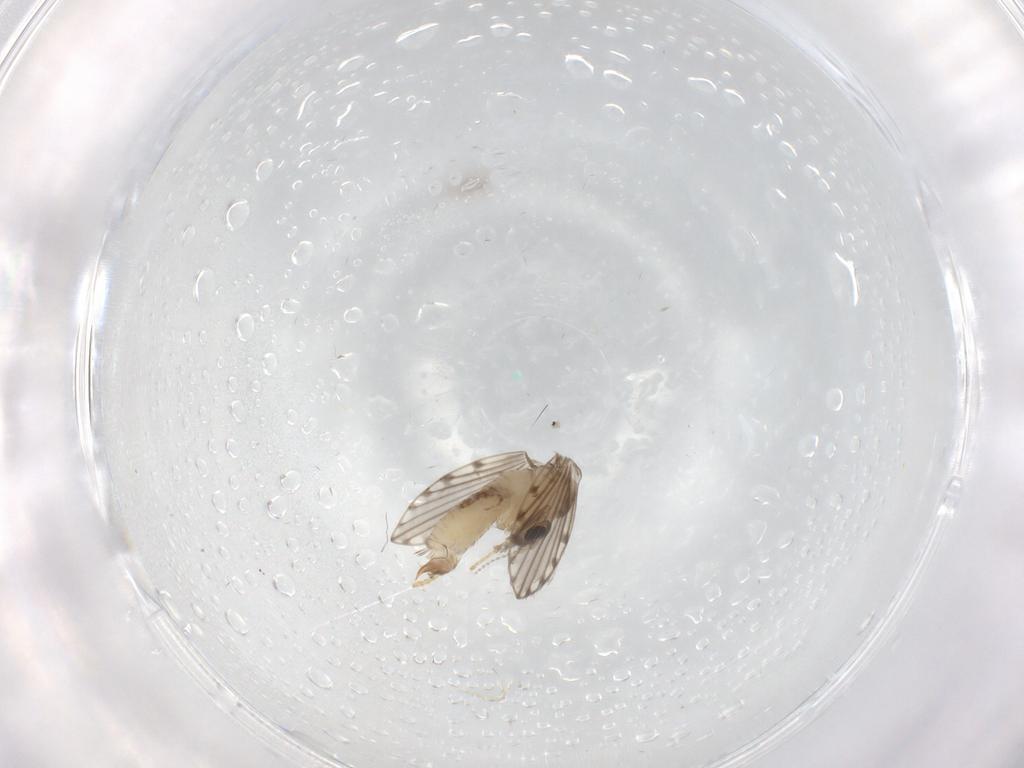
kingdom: Animalia
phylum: Arthropoda
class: Insecta
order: Diptera
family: Psychodidae
